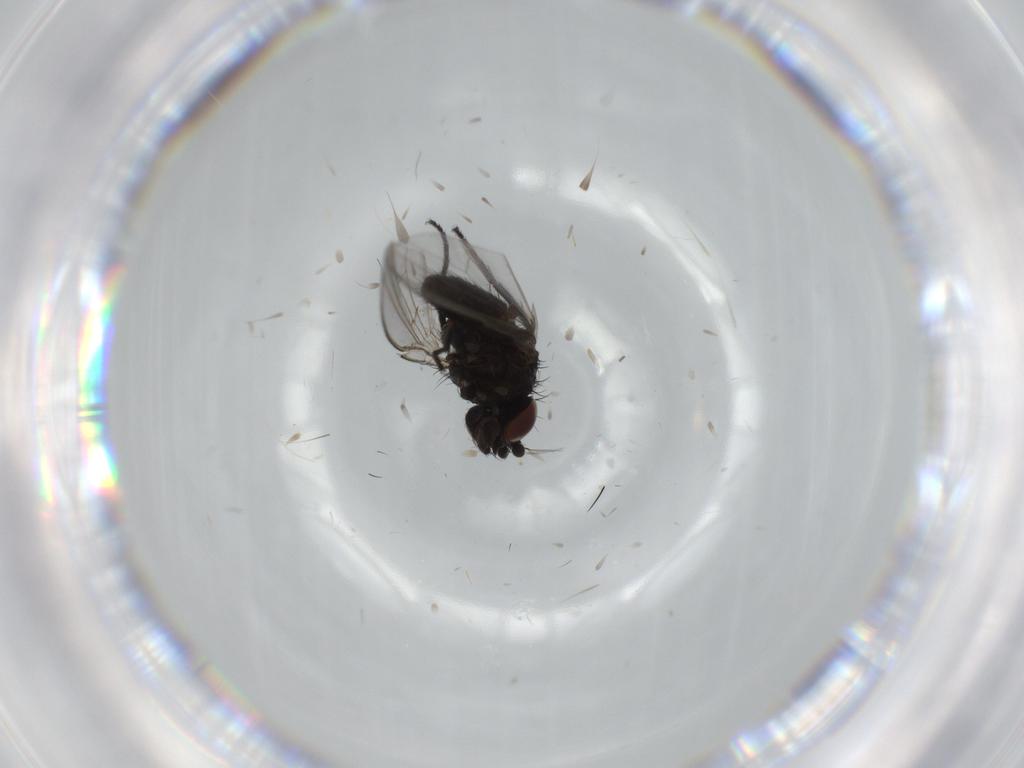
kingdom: Animalia
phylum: Arthropoda
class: Insecta
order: Diptera
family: Milichiidae
